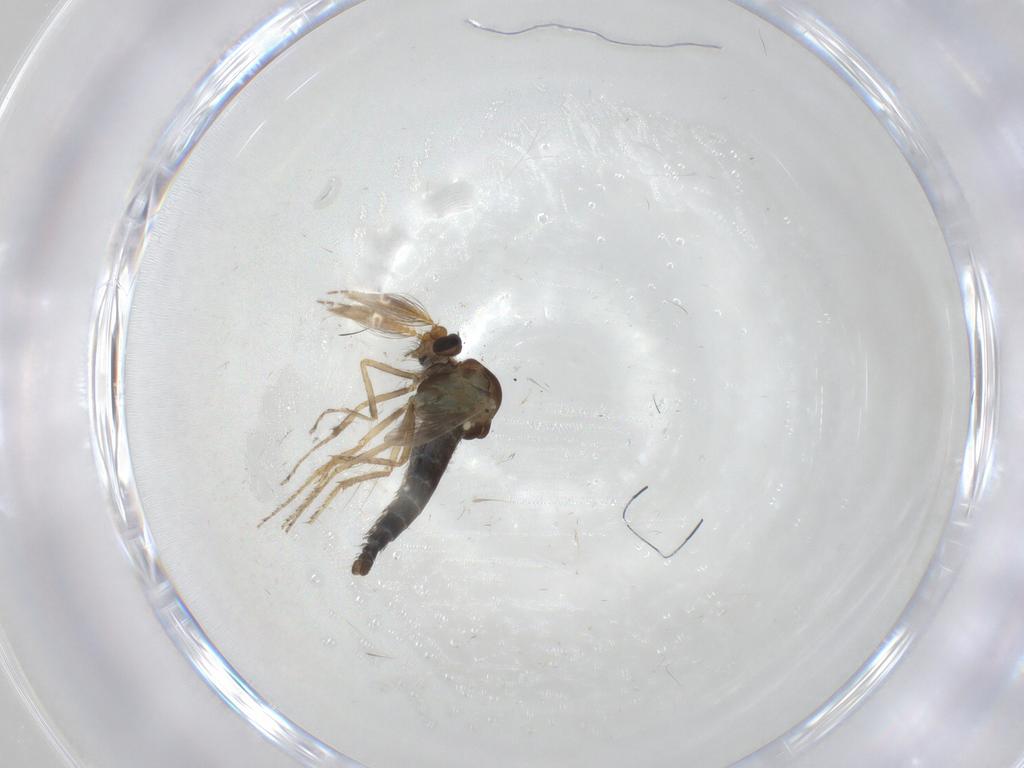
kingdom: Animalia
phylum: Arthropoda
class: Insecta
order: Diptera
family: Ceratopogonidae
